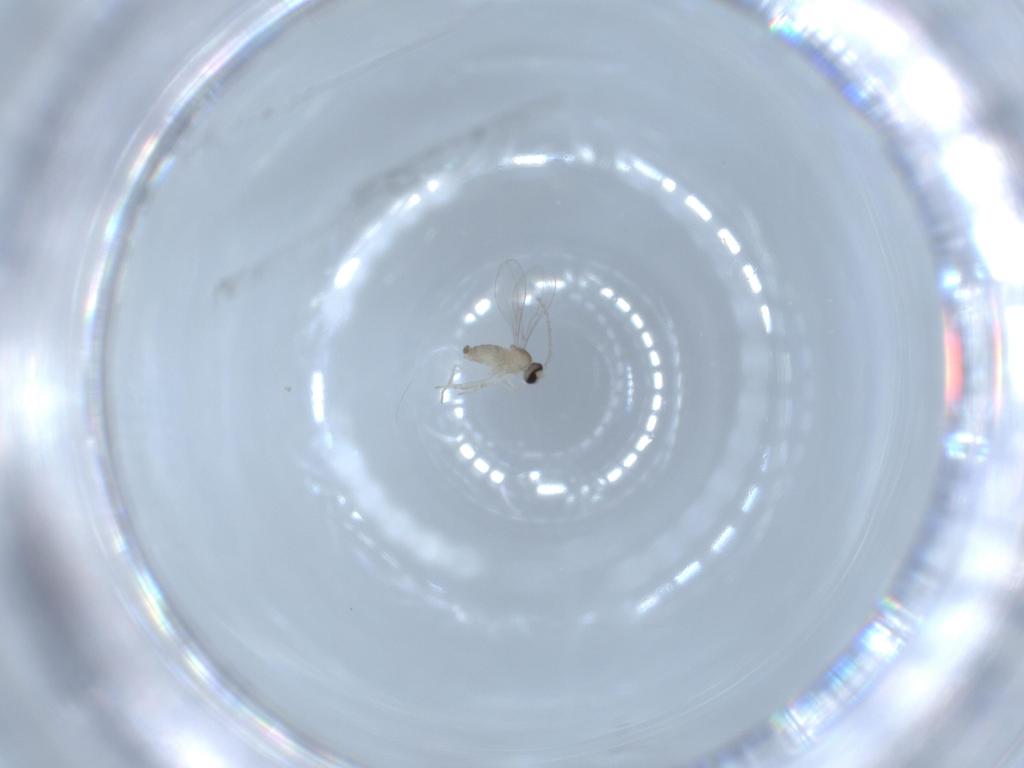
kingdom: Animalia
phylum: Arthropoda
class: Insecta
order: Diptera
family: Cecidomyiidae
